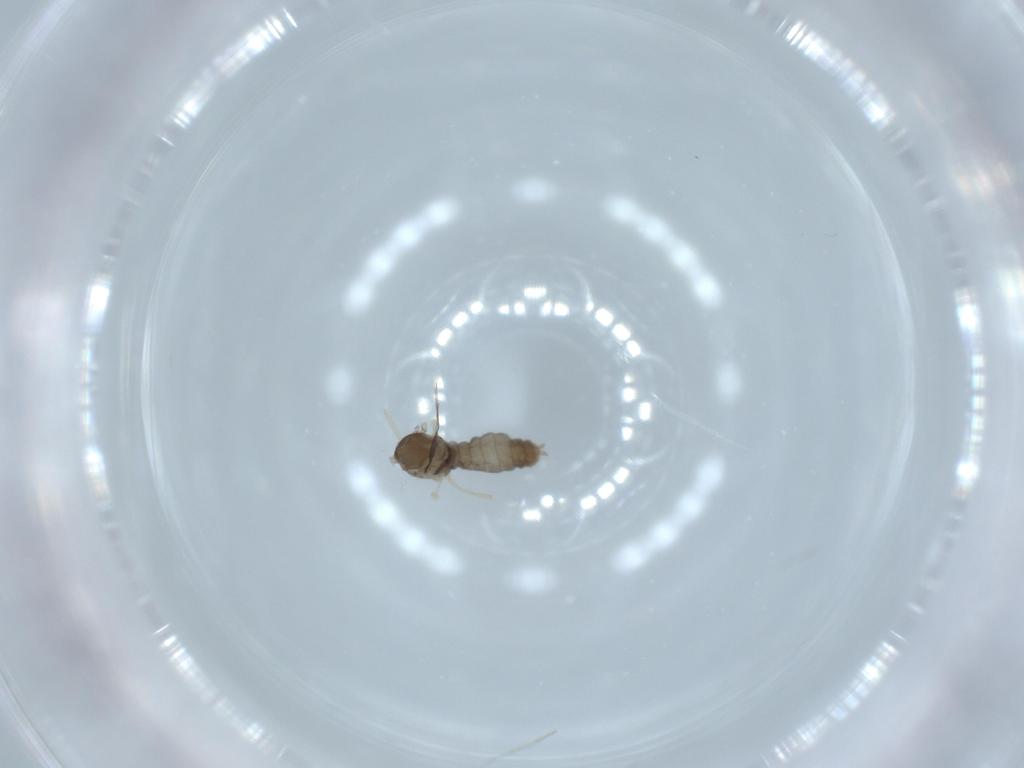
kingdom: Animalia
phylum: Arthropoda
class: Insecta
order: Diptera
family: Sciaridae
